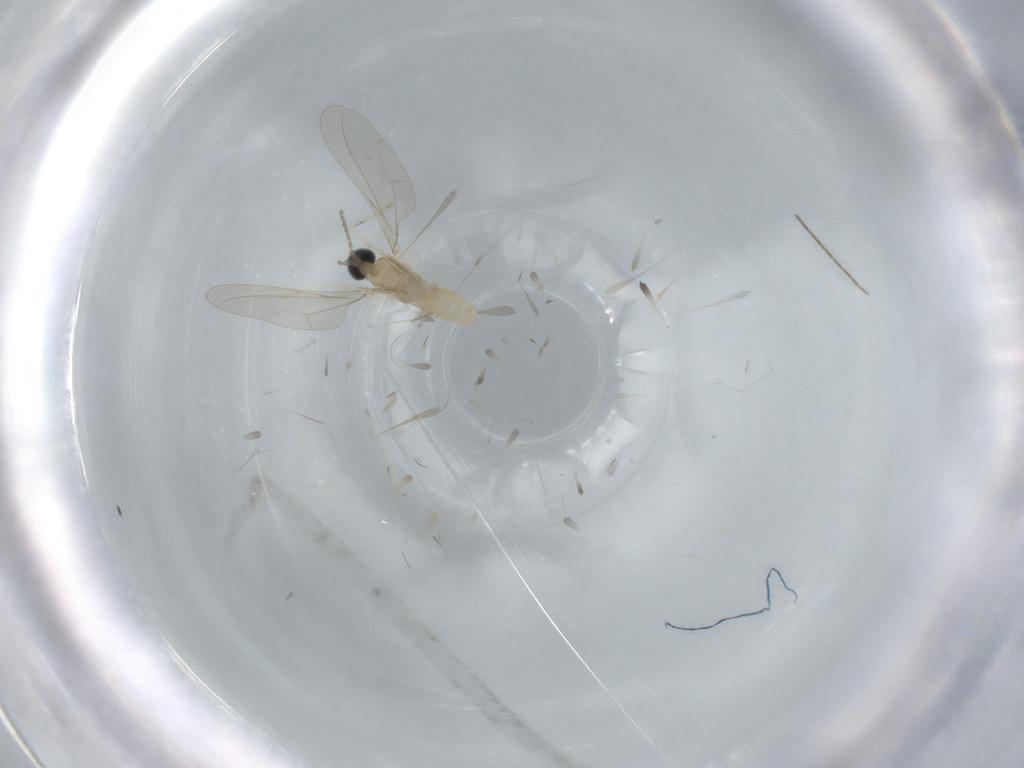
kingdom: Animalia
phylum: Arthropoda
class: Insecta
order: Diptera
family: Cecidomyiidae
